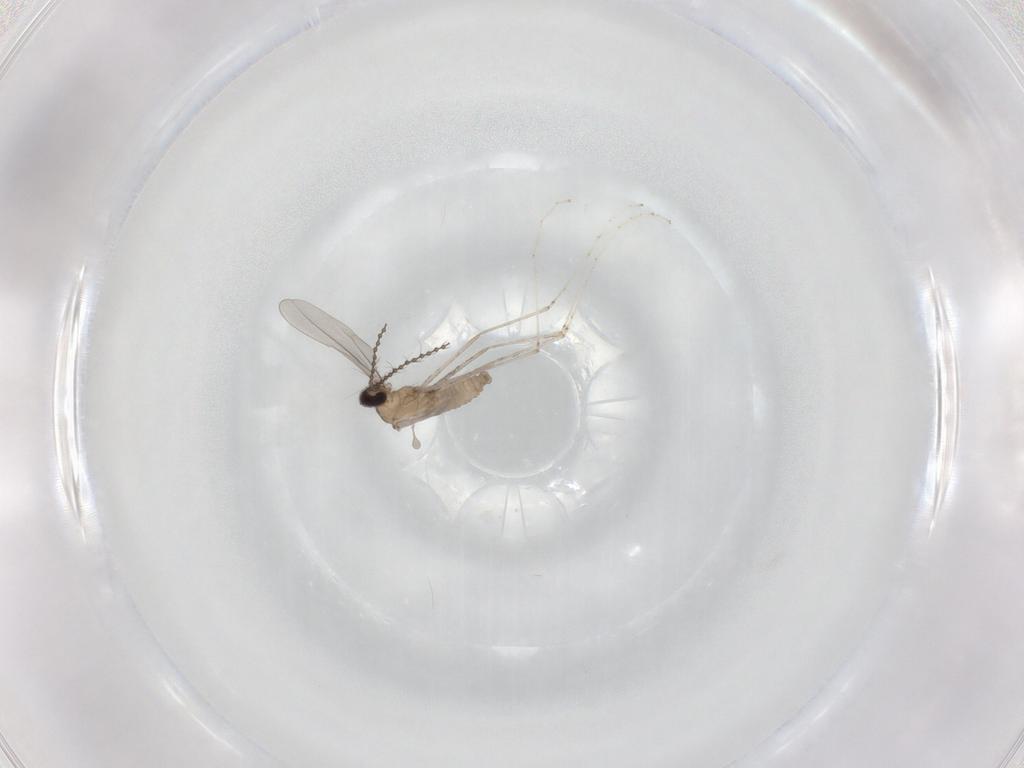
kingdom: Animalia
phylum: Arthropoda
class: Insecta
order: Diptera
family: Cecidomyiidae
